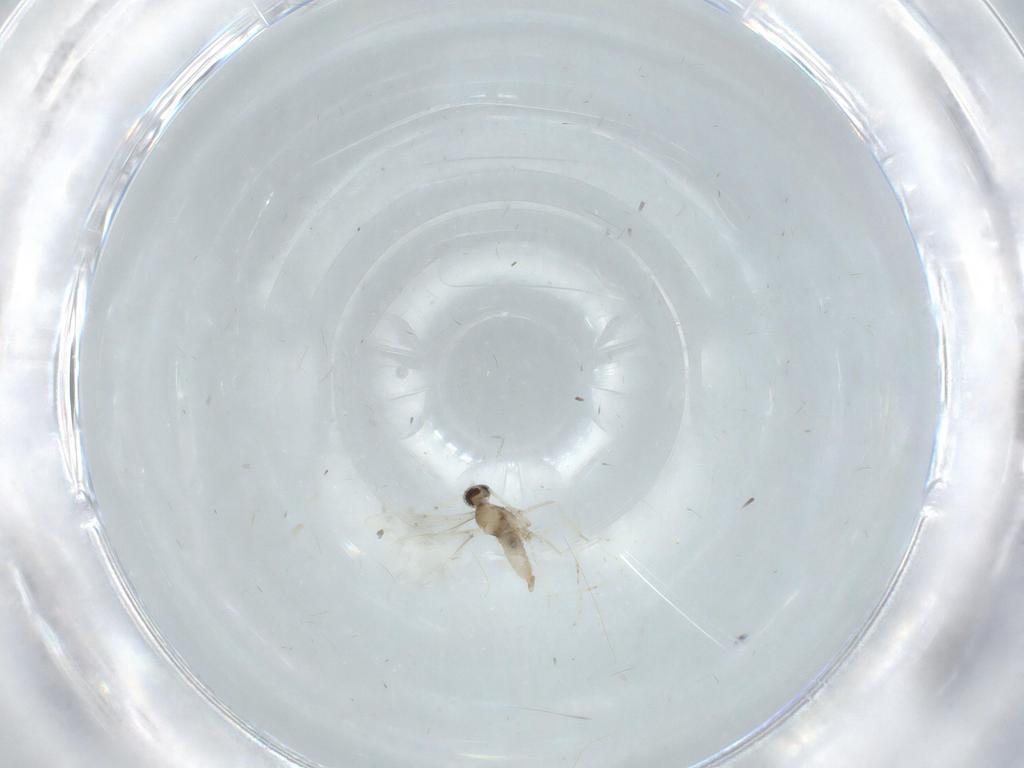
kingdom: Animalia
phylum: Arthropoda
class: Insecta
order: Diptera
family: Cecidomyiidae
